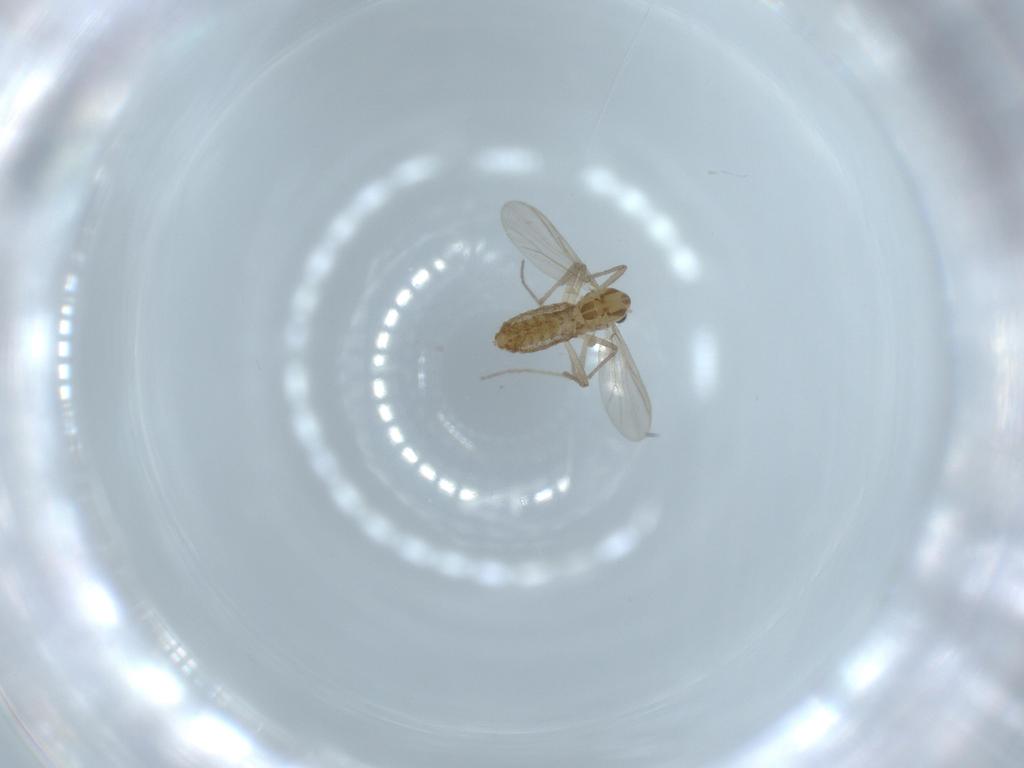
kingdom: Animalia
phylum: Arthropoda
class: Insecta
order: Diptera
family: Chironomidae
